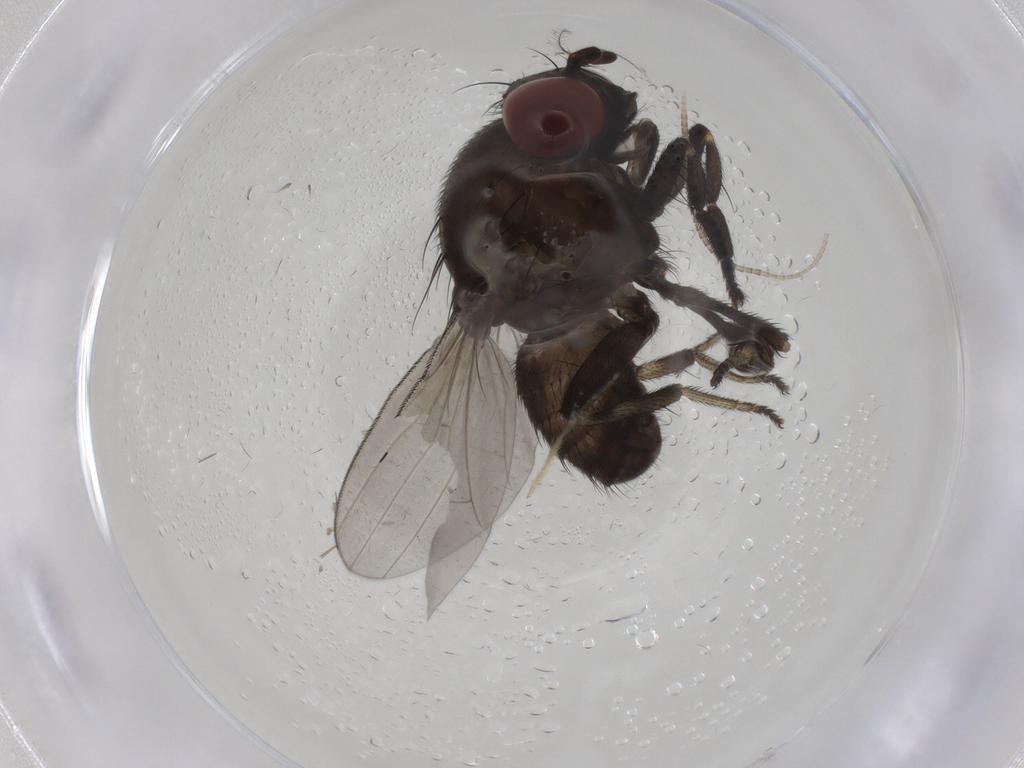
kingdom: Animalia
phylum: Arthropoda
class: Insecta
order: Diptera
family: Lauxaniidae
